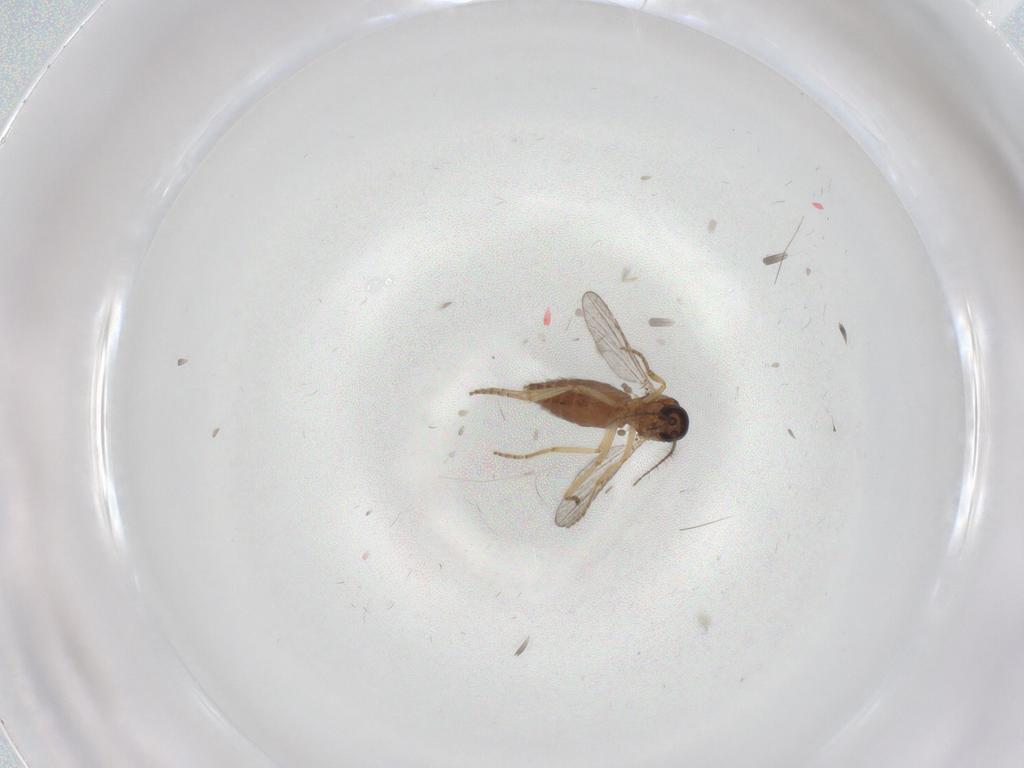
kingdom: Animalia
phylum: Arthropoda
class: Insecta
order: Diptera
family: Ceratopogonidae
